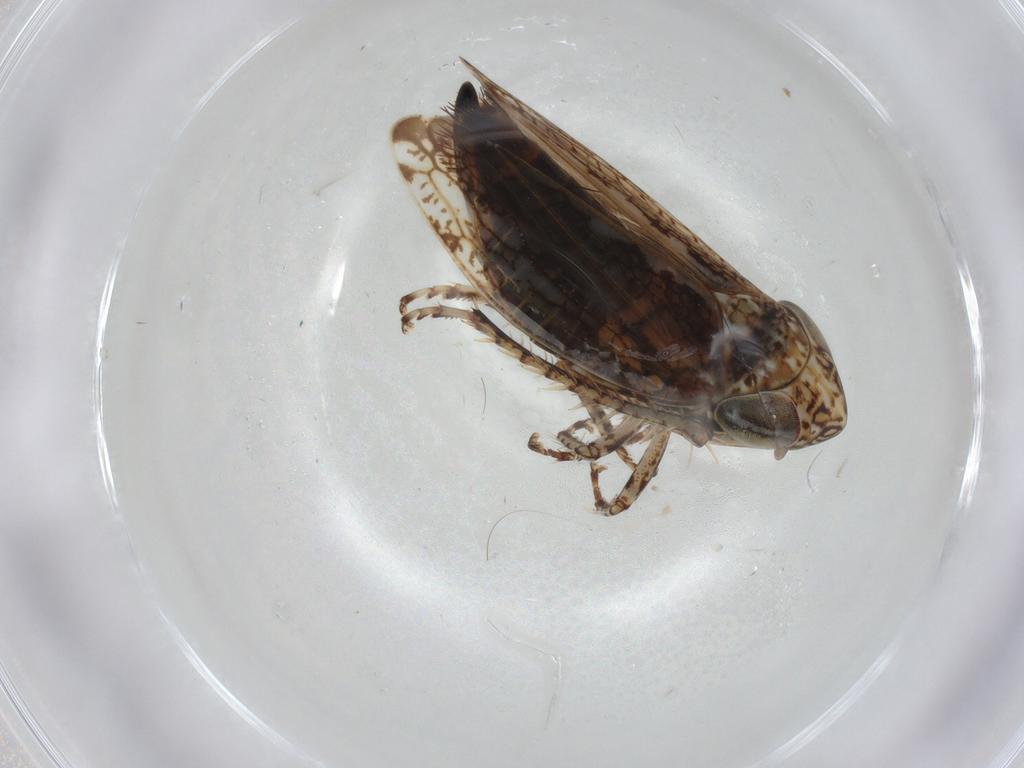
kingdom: Animalia
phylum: Arthropoda
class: Insecta
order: Hemiptera
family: Cicadellidae
